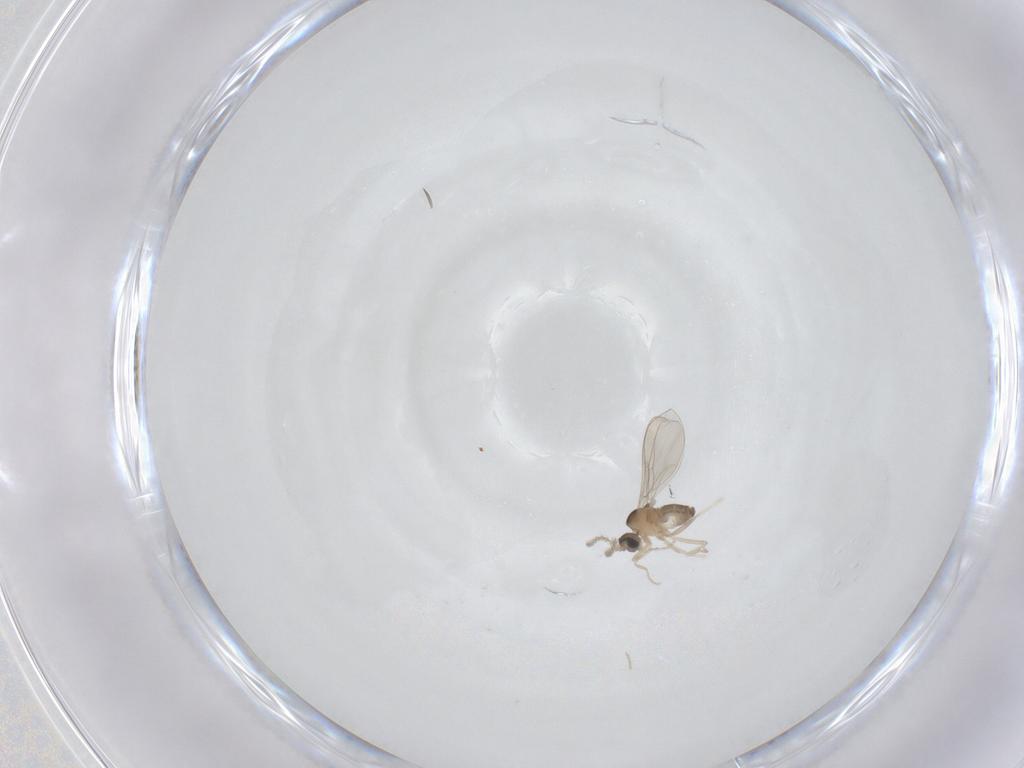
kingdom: Animalia
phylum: Arthropoda
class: Insecta
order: Diptera
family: Cecidomyiidae
